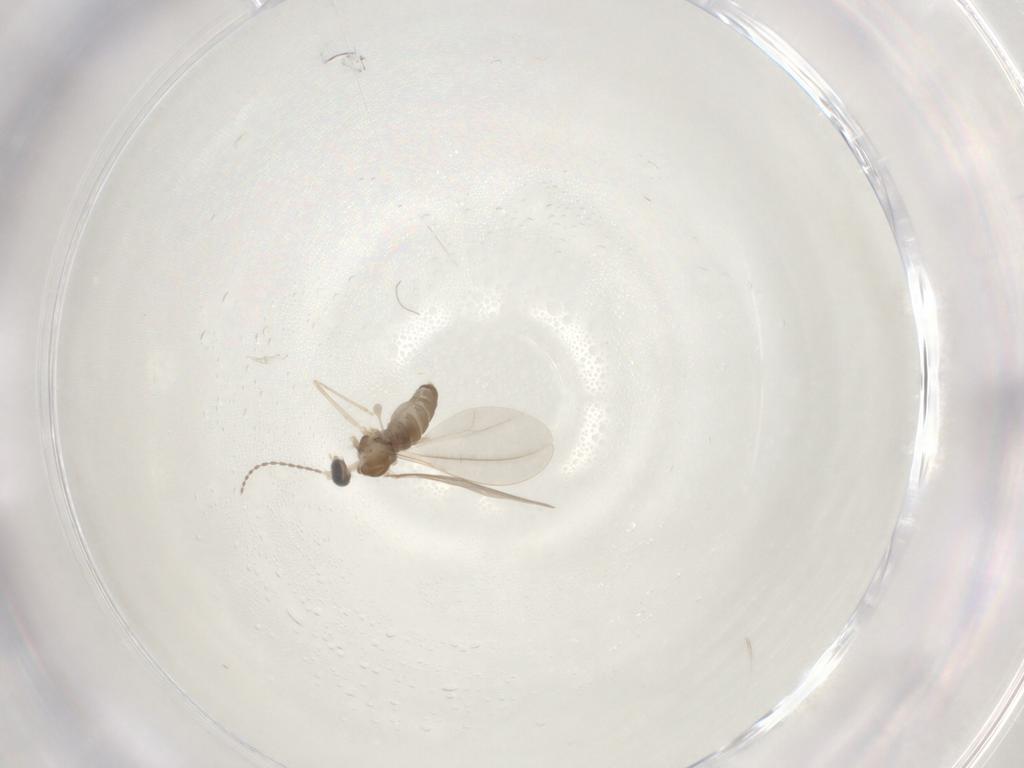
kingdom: Animalia
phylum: Arthropoda
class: Insecta
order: Diptera
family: Cecidomyiidae
